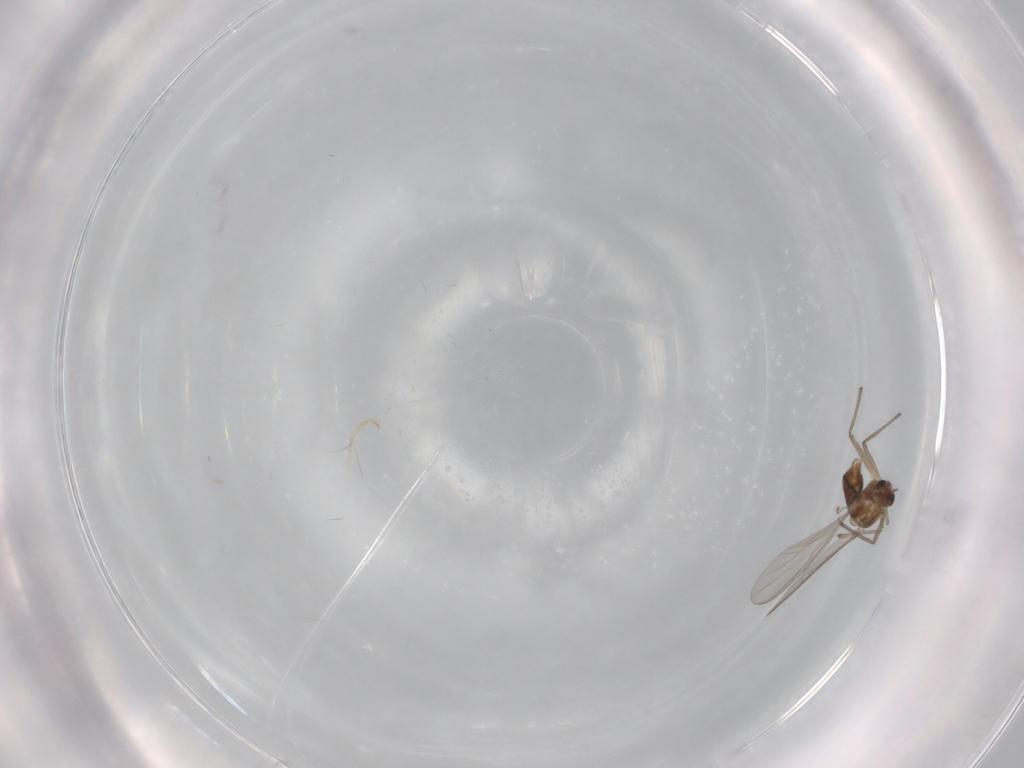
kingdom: Animalia
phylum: Arthropoda
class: Insecta
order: Diptera
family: Chironomidae
